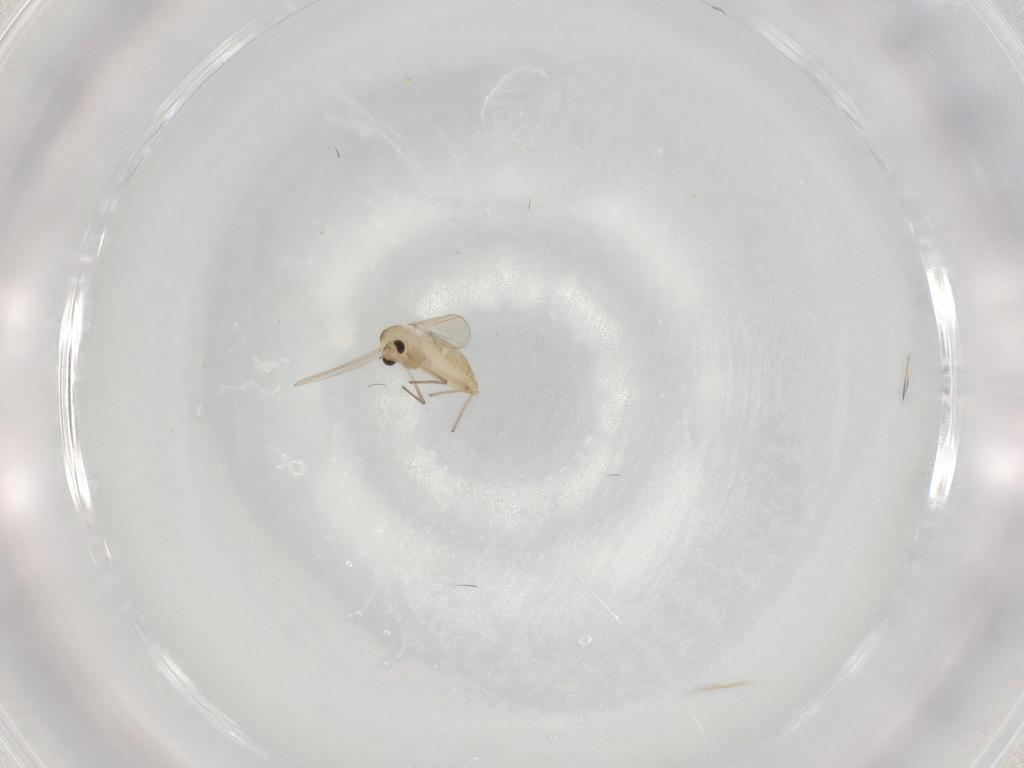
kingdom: Animalia
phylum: Arthropoda
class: Insecta
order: Diptera
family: Chironomidae
